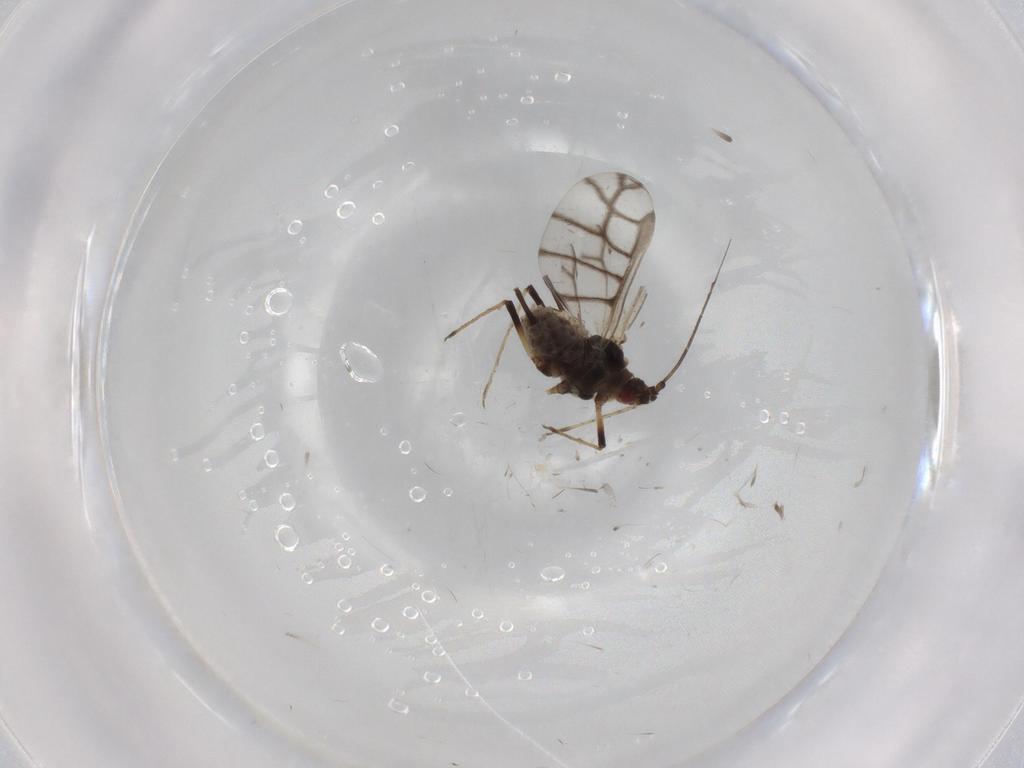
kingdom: Animalia
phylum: Arthropoda
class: Insecta
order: Hemiptera
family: Aphididae
